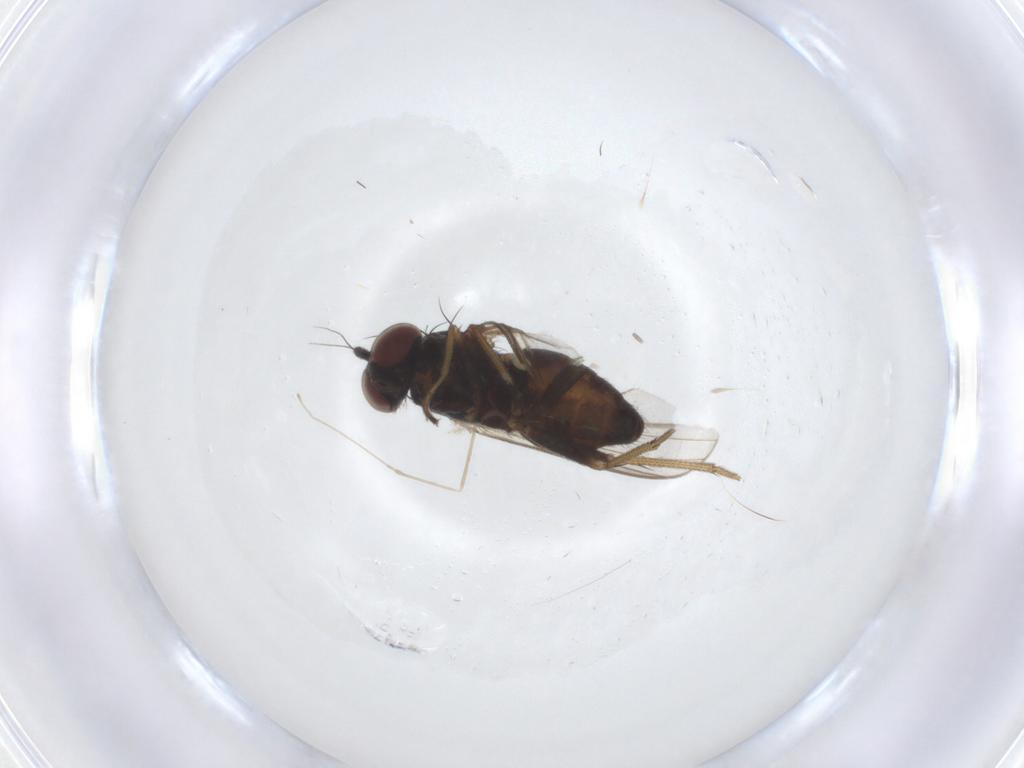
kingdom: Animalia
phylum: Arthropoda
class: Insecta
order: Diptera
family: Dolichopodidae
